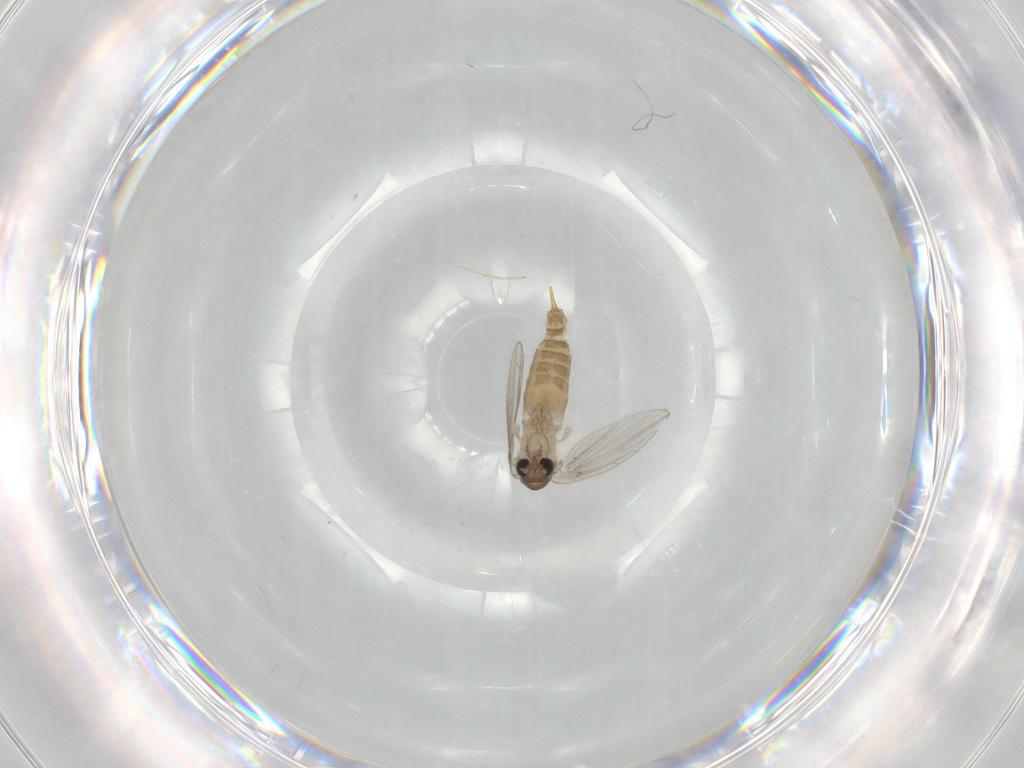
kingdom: Animalia
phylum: Arthropoda
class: Insecta
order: Diptera
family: Psychodidae
